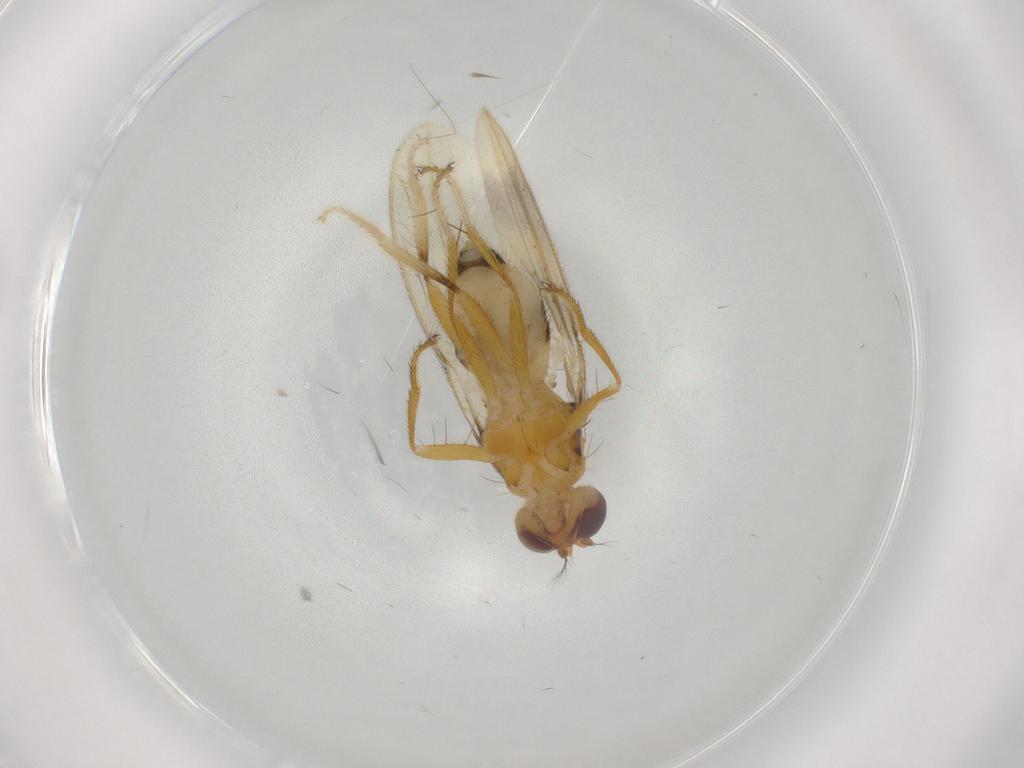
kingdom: Animalia
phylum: Arthropoda
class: Insecta
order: Diptera
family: Periscelididae
